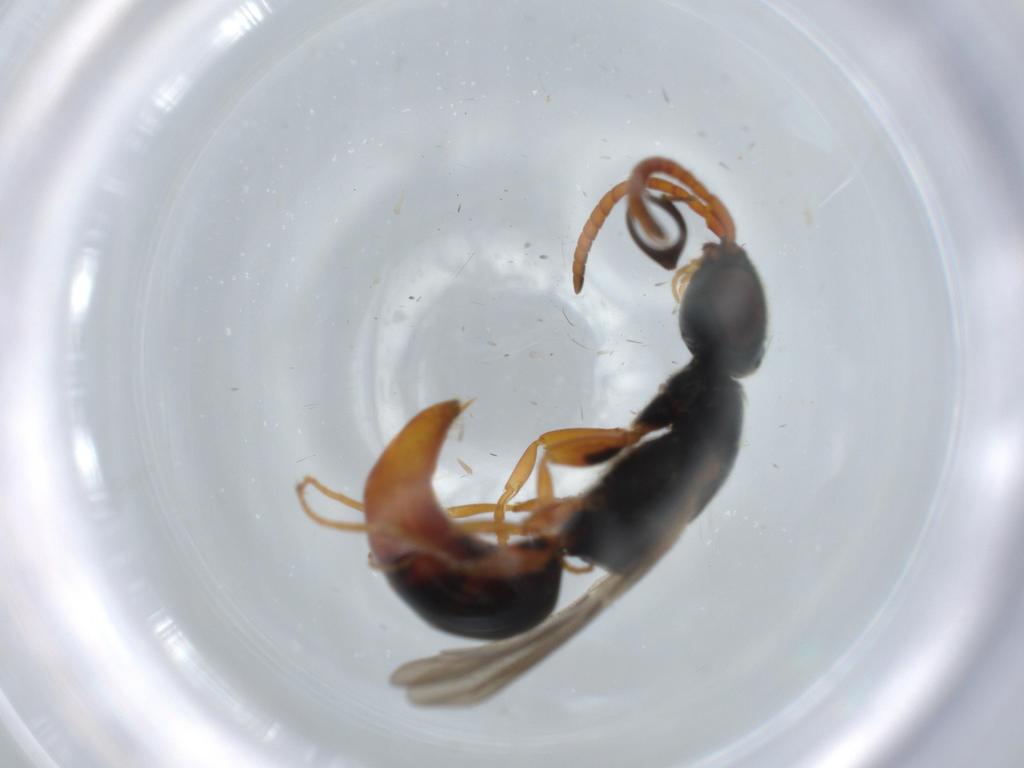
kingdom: Animalia
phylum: Arthropoda
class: Insecta
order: Hymenoptera
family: Bethylidae
